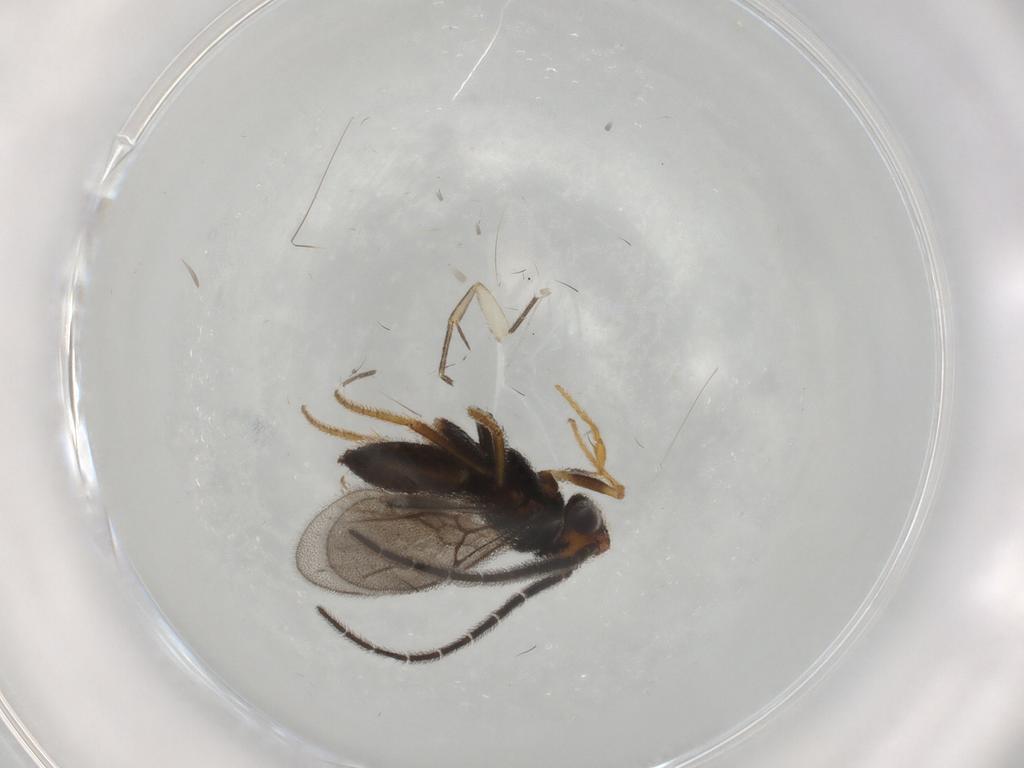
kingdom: Animalia
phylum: Arthropoda
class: Insecta
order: Hymenoptera
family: Dryinidae
